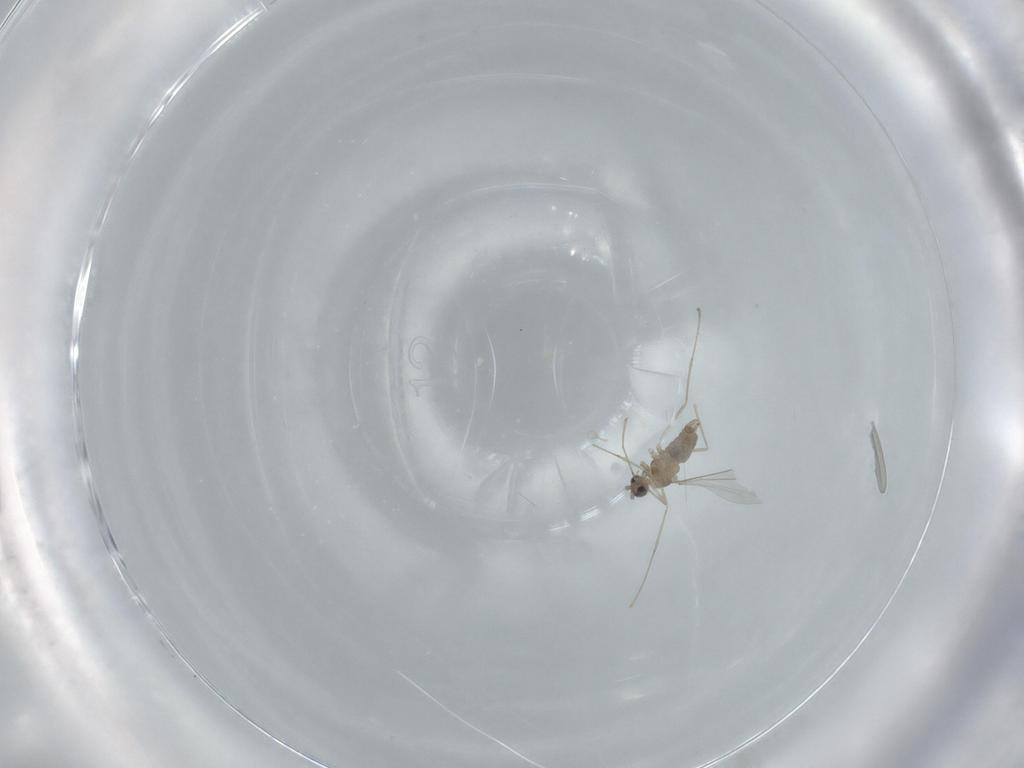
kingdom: Animalia
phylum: Arthropoda
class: Insecta
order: Diptera
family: Cecidomyiidae
